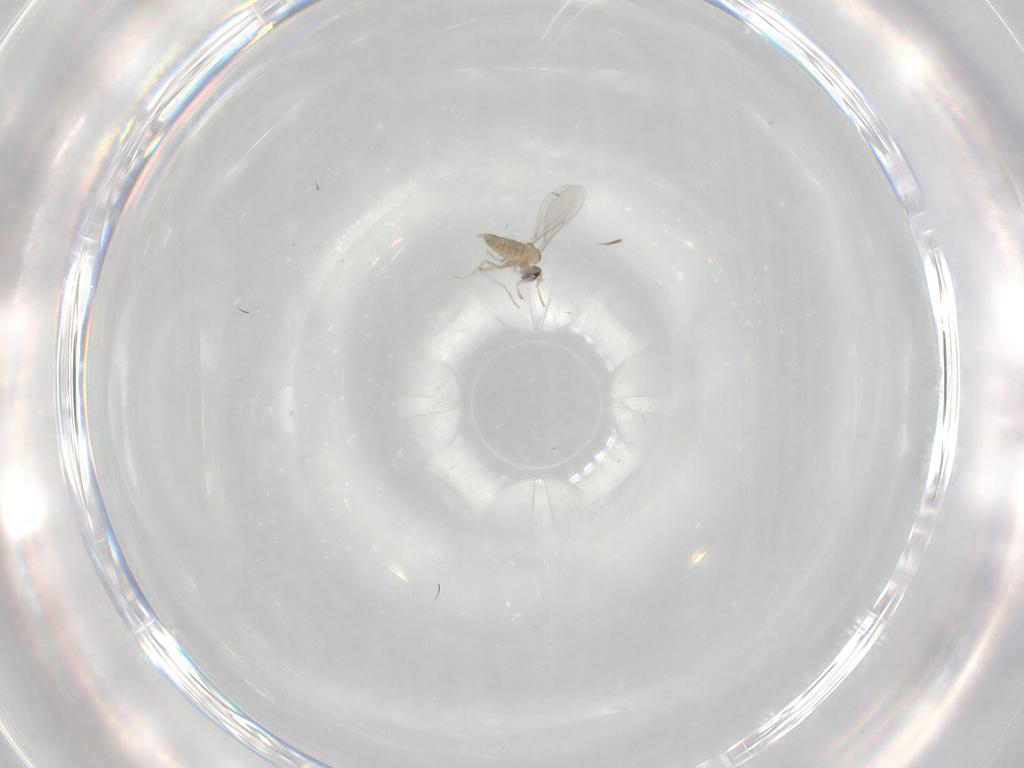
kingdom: Animalia
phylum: Arthropoda
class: Insecta
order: Diptera
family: Cecidomyiidae
